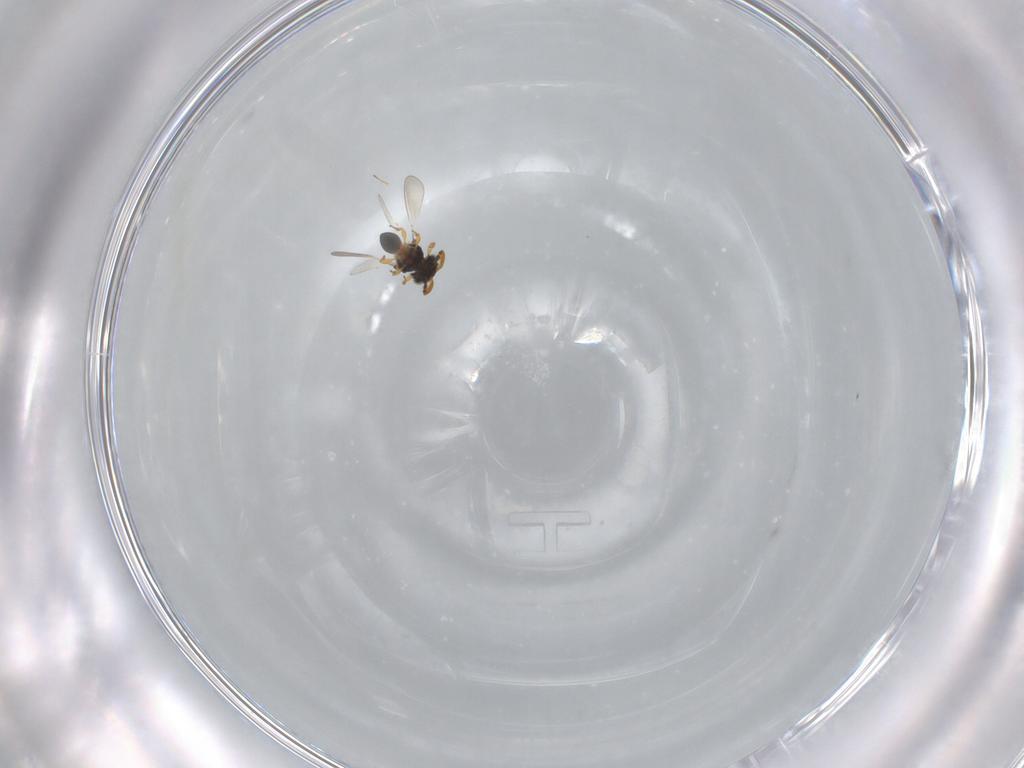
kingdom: Animalia
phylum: Arthropoda
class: Insecta
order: Hymenoptera
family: Platygastridae
